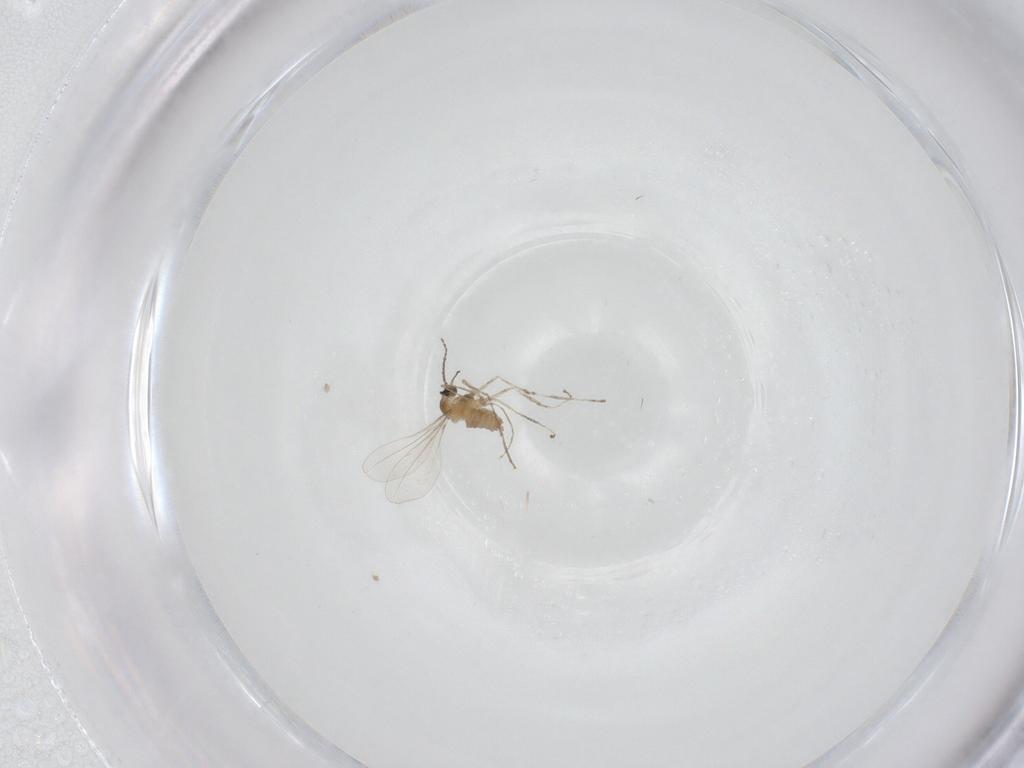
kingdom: Animalia
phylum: Arthropoda
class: Insecta
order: Diptera
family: Cecidomyiidae
